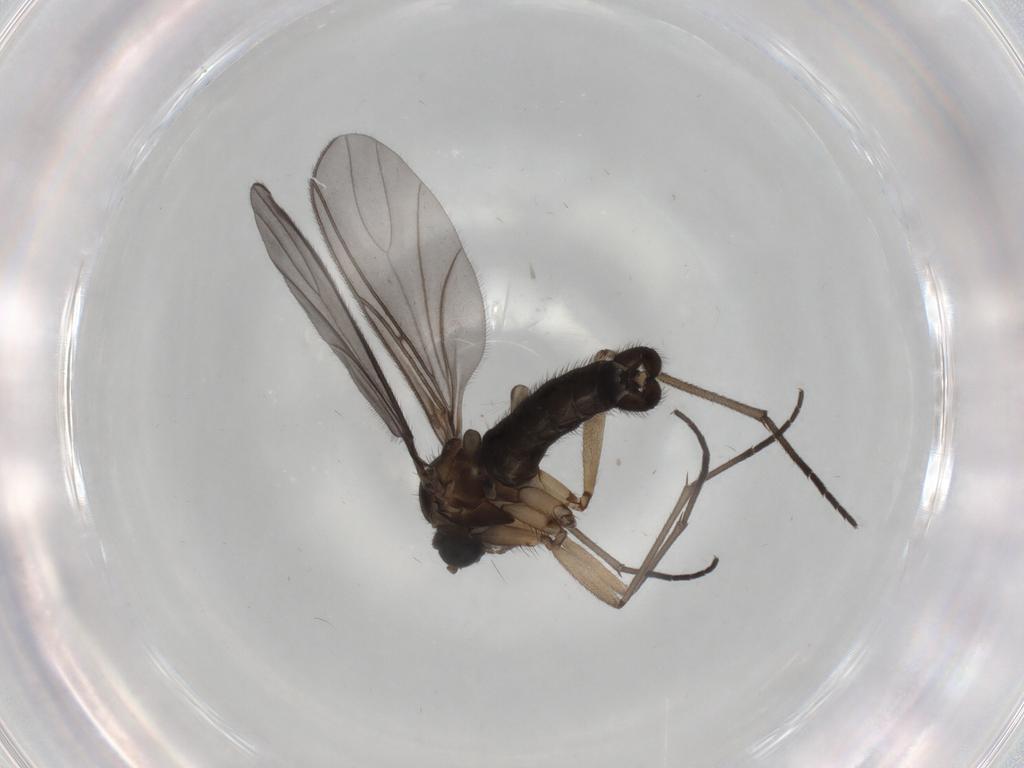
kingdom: Animalia
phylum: Arthropoda
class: Insecta
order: Diptera
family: Sciaridae
